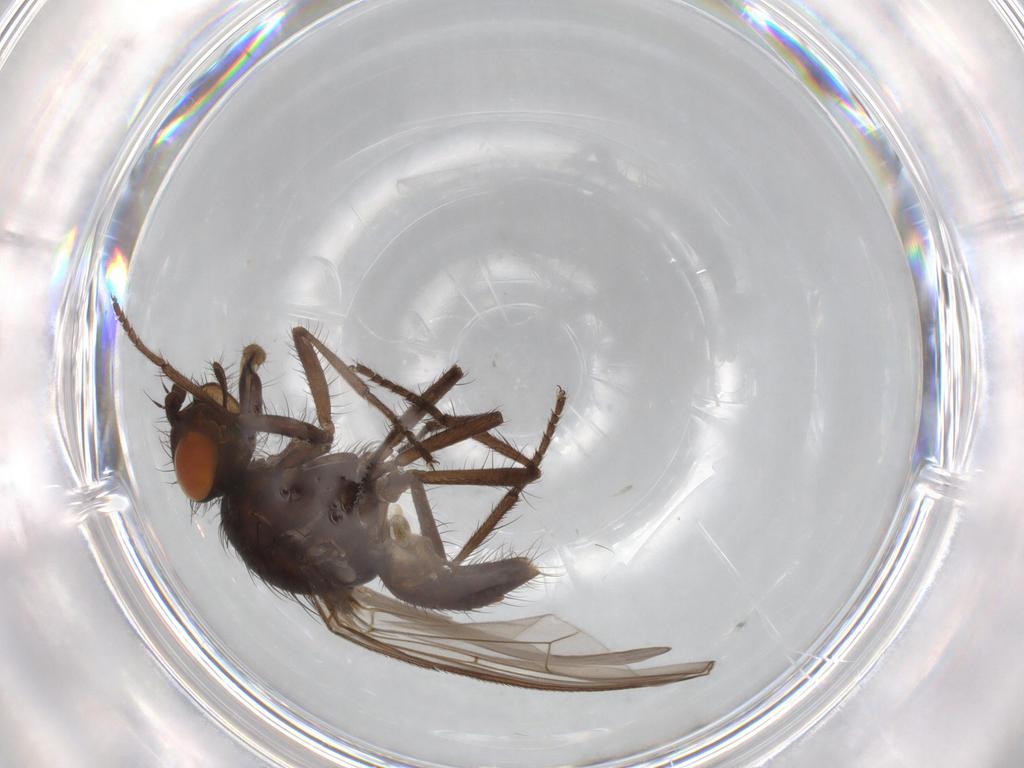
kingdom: Animalia
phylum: Arthropoda
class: Insecta
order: Diptera
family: Anthomyiidae
